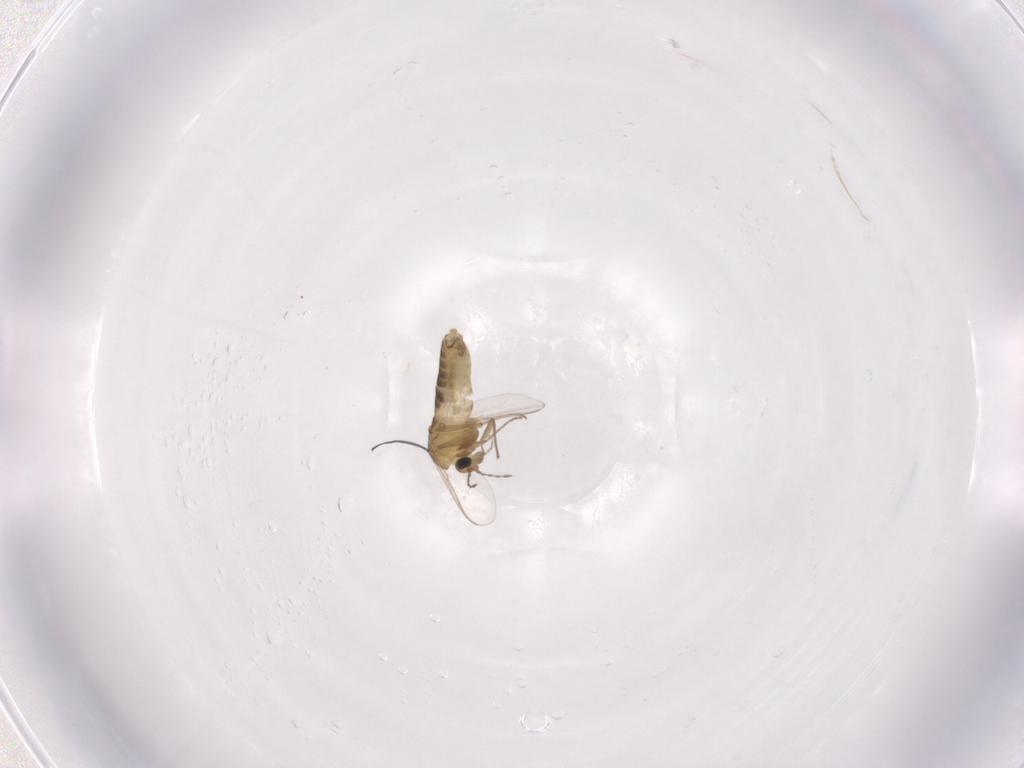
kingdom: Animalia
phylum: Arthropoda
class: Insecta
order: Diptera
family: Chironomidae
